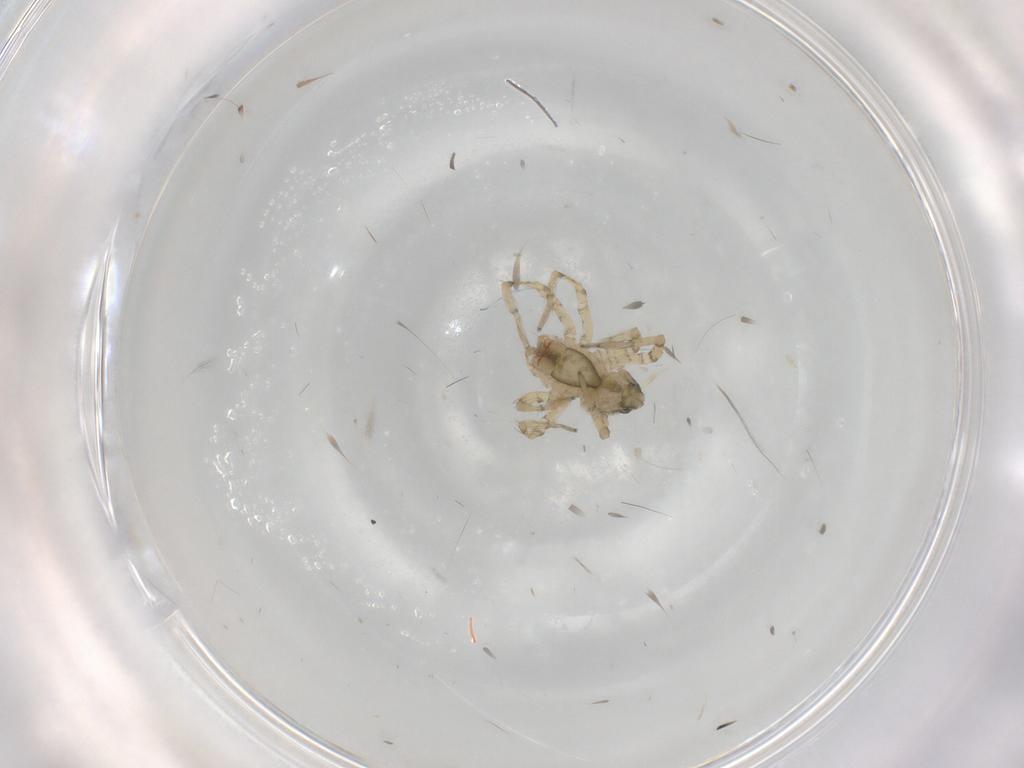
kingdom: Animalia
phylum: Arthropoda
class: Arachnida
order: Araneae
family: Theridiidae
